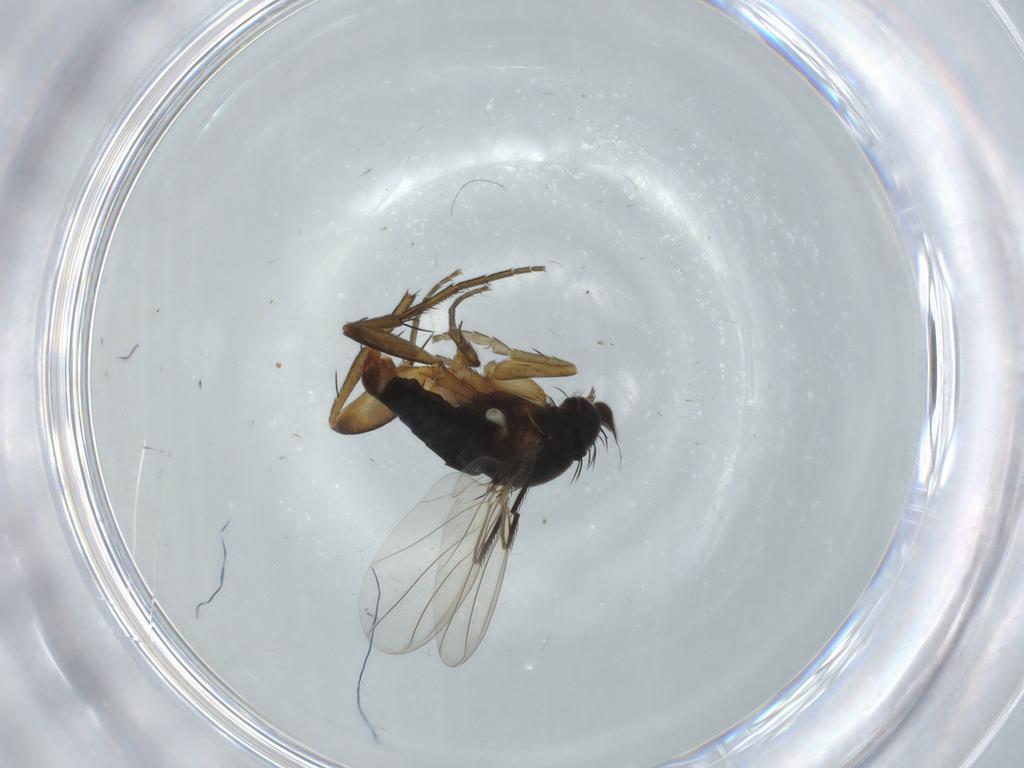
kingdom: Animalia
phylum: Arthropoda
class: Insecta
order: Diptera
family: Phoridae
